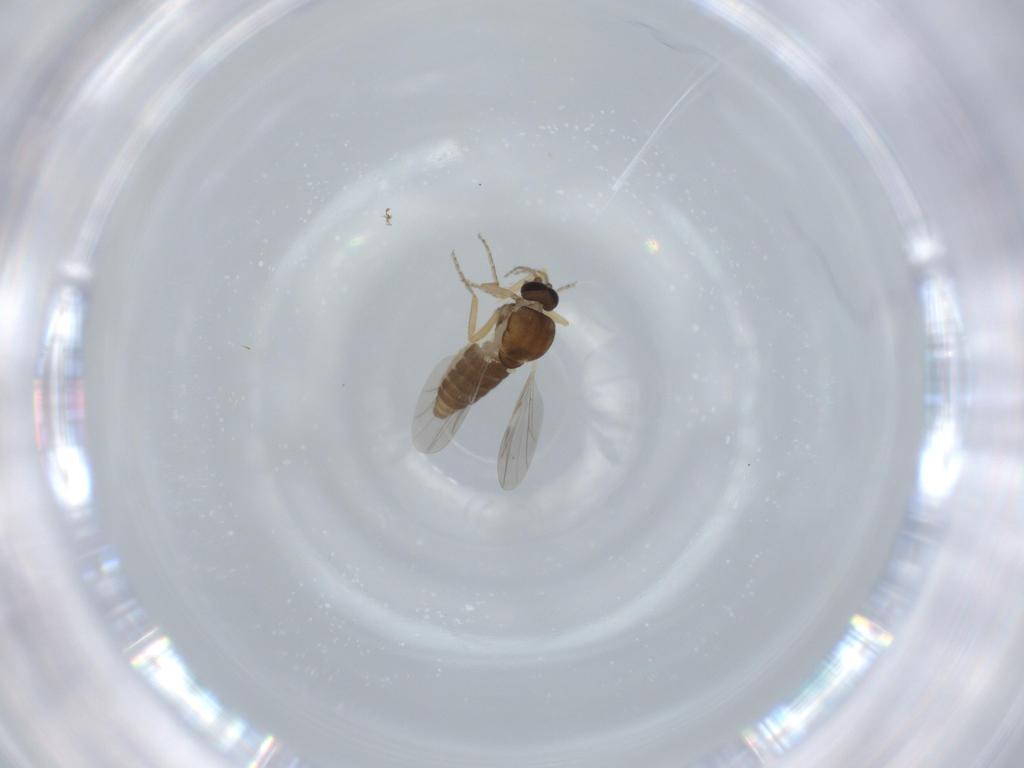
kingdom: Animalia
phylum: Arthropoda
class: Insecta
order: Diptera
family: Ceratopogonidae
